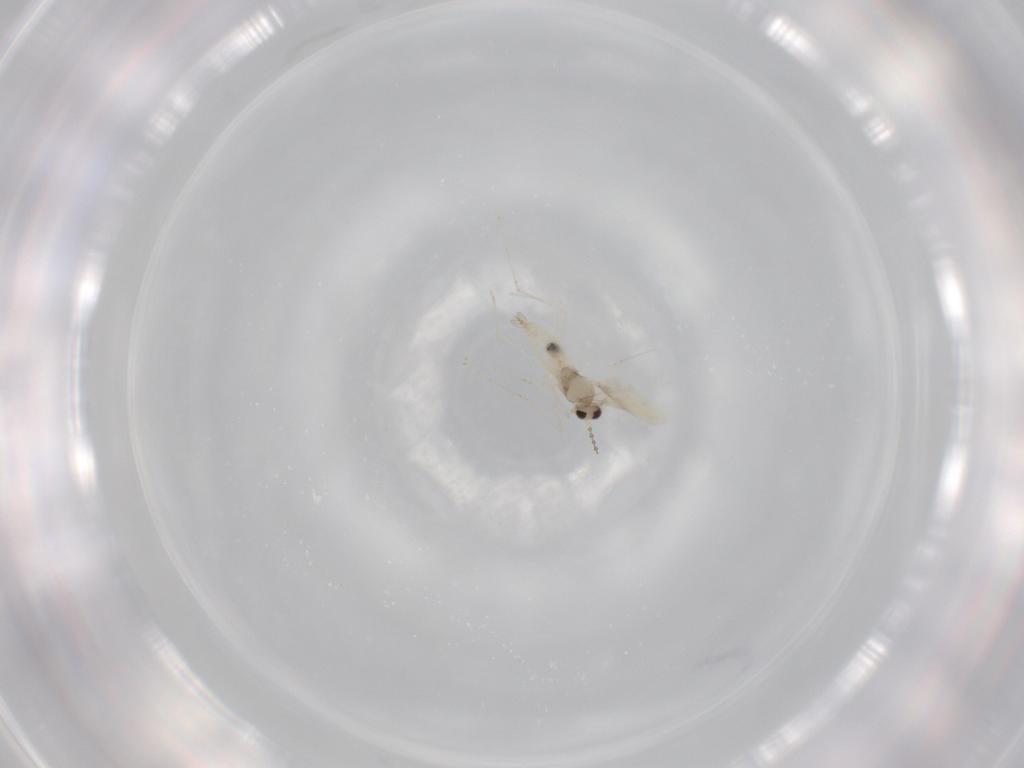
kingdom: Animalia
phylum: Arthropoda
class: Insecta
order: Diptera
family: Cecidomyiidae
